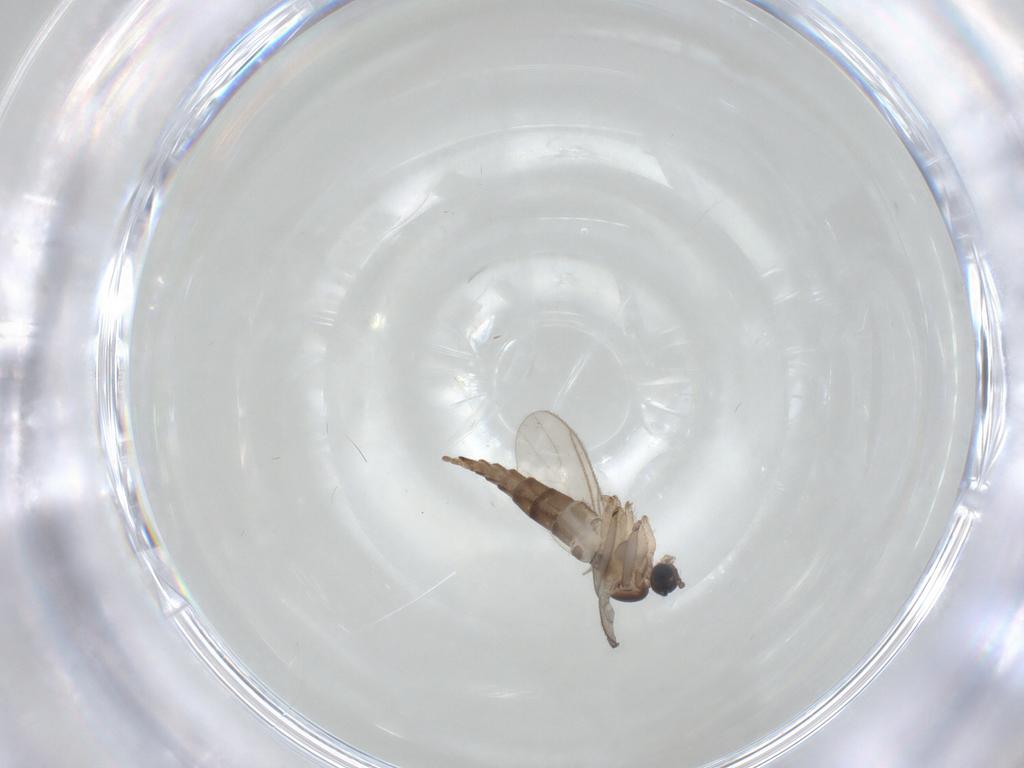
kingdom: Animalia
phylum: Arthropoda
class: Insecta
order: Diptera
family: Sciaridae
